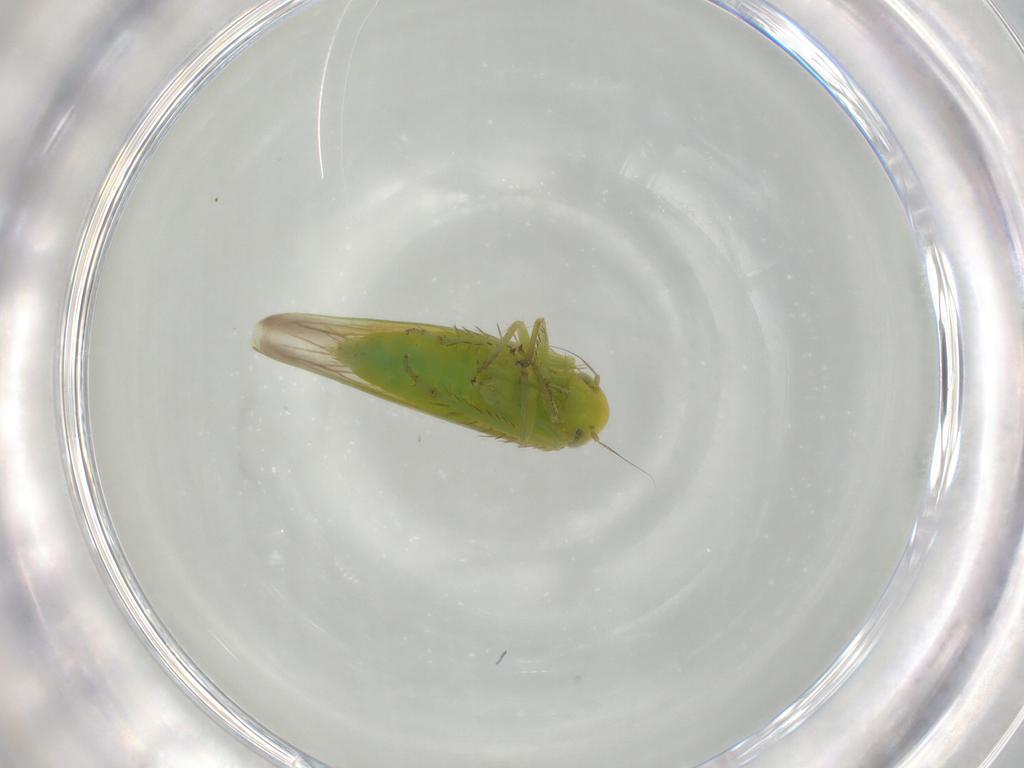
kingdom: Animalia
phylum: Arthropoda
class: Insecta
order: Hemiptera
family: Cicadellidae
